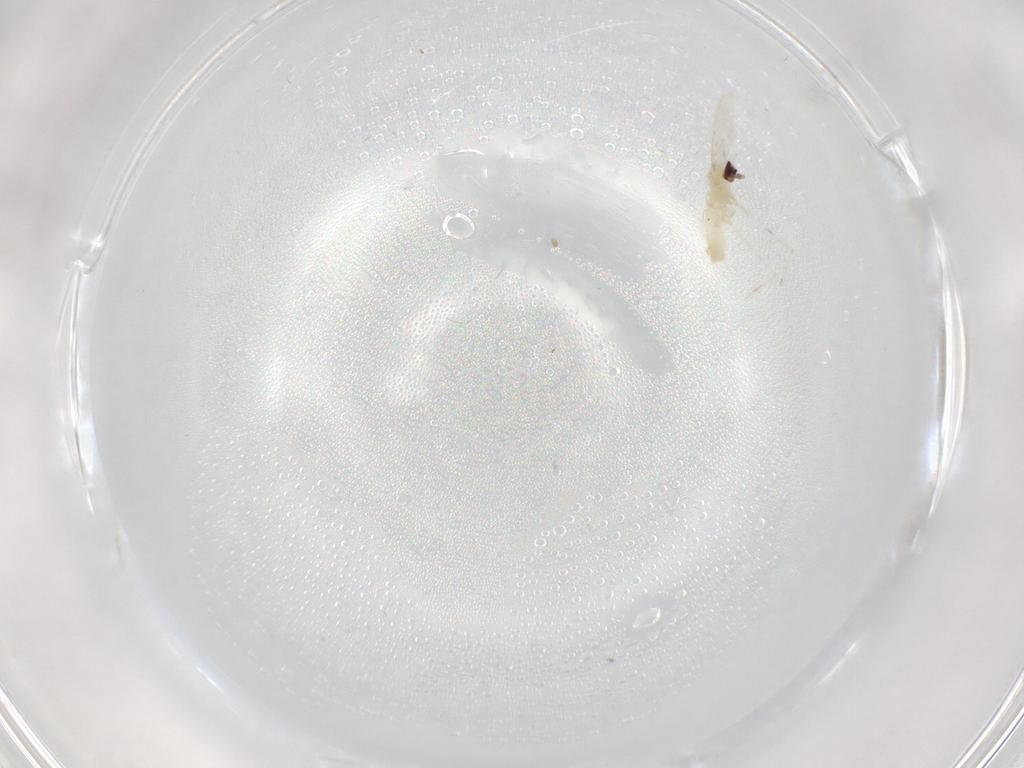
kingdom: Animalia
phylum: Arthropoda
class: Insecta
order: Diptera
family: Cecidomyiidae
